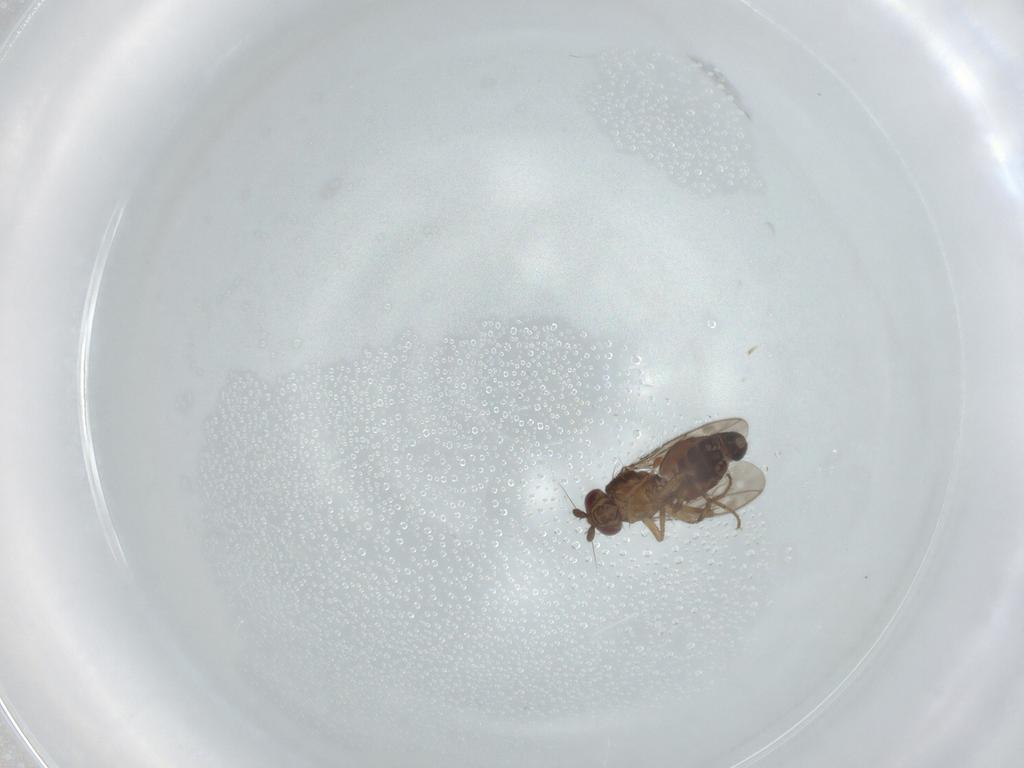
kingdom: Animalia
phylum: Arthropoda
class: Insecta
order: Diptera
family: Sphaeroceridae
